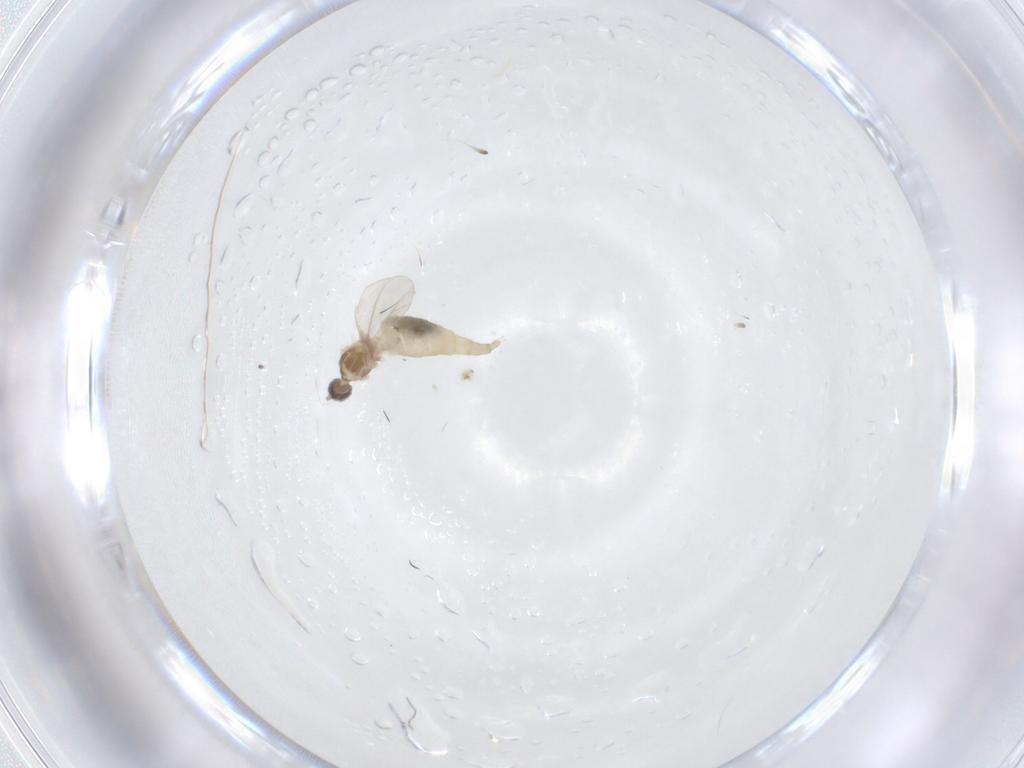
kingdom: Animalia
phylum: Arthropoda
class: Insecta
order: Diptera
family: Cecidomyiidae
